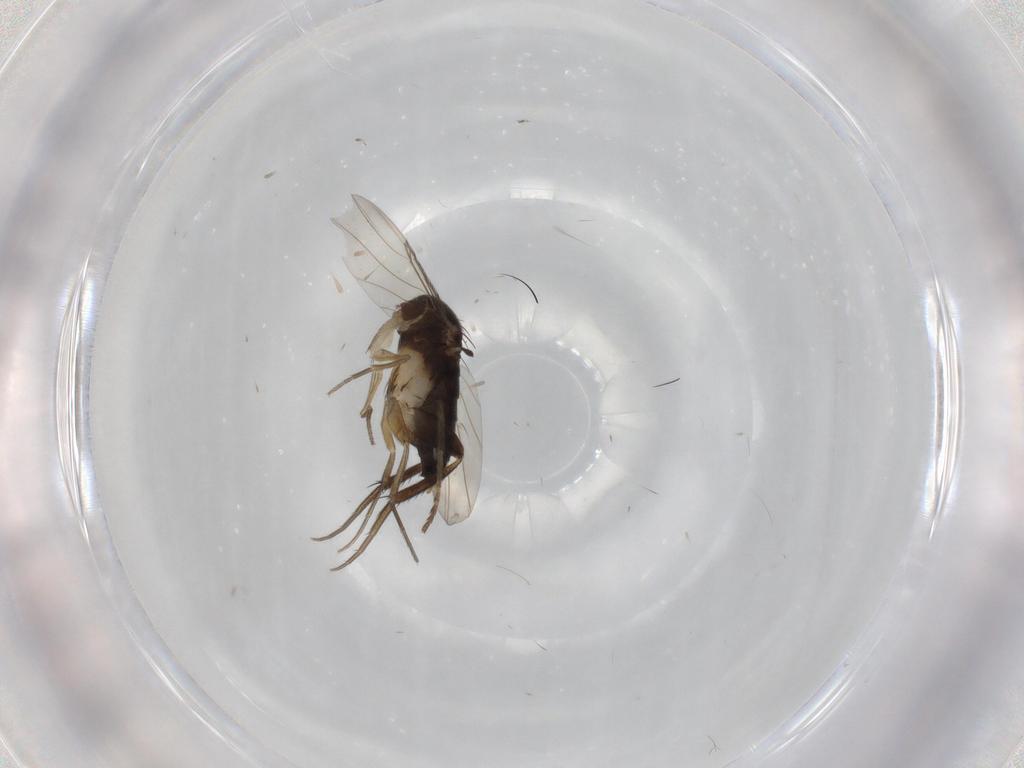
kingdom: Animalia
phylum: Arthropoda
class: Insecta
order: Diptera
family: Phoridae
